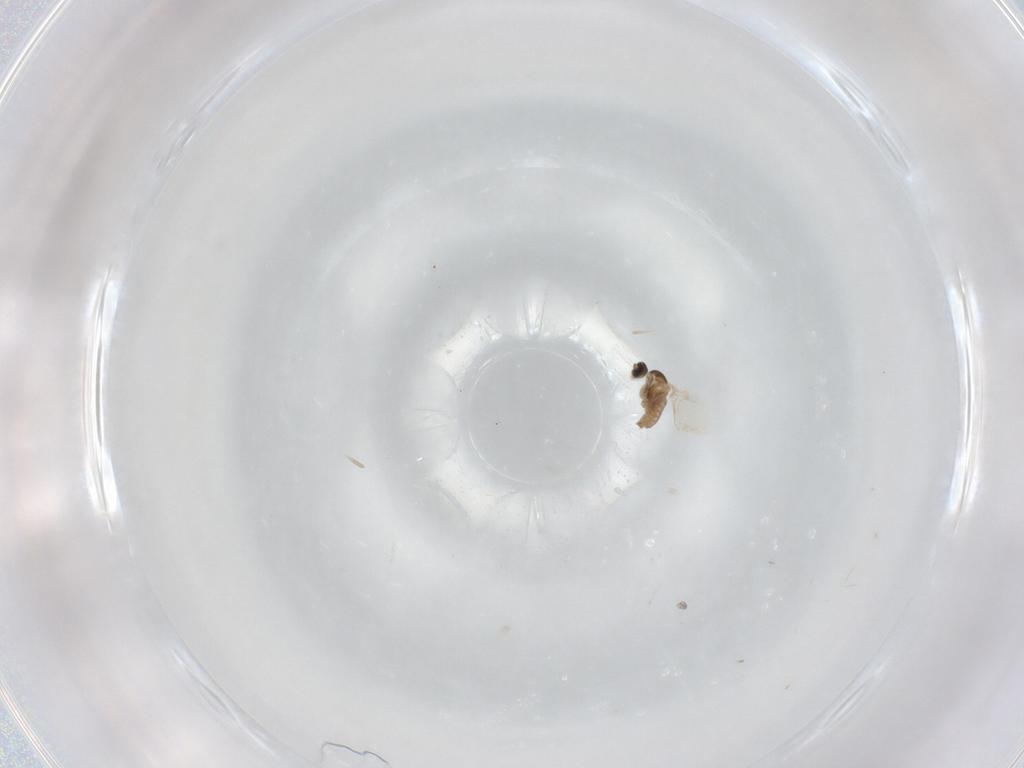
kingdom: Animalia
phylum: Arthropoda
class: Insecta
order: Diptera
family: Cecidomyiidae
